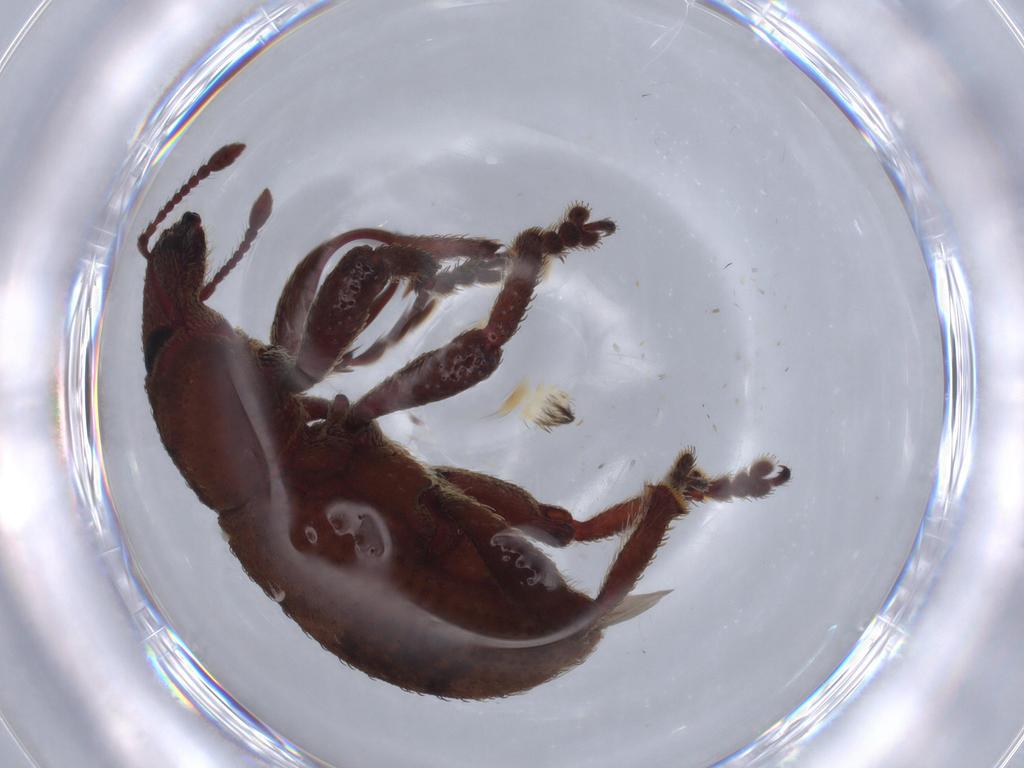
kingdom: Animalia
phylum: Arthropoda
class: Insecta
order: Coleoptera
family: Curculionidae
